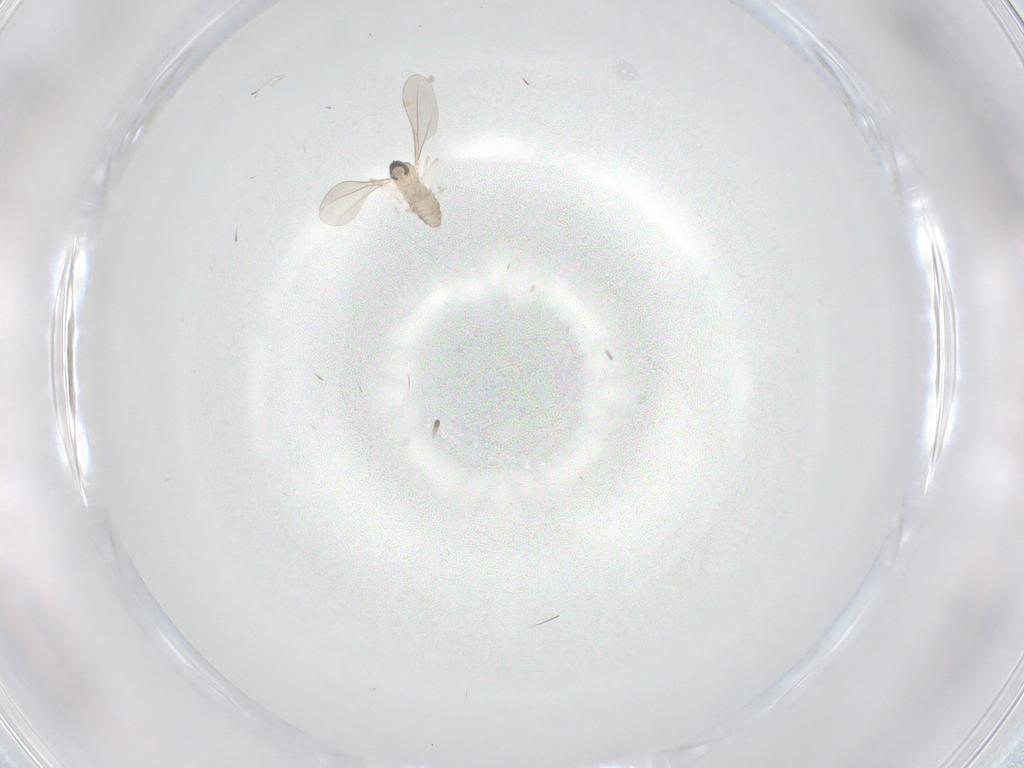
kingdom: Animalia
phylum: Arthropoda
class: Insecta
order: Diptera
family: Cecidomyiidae
